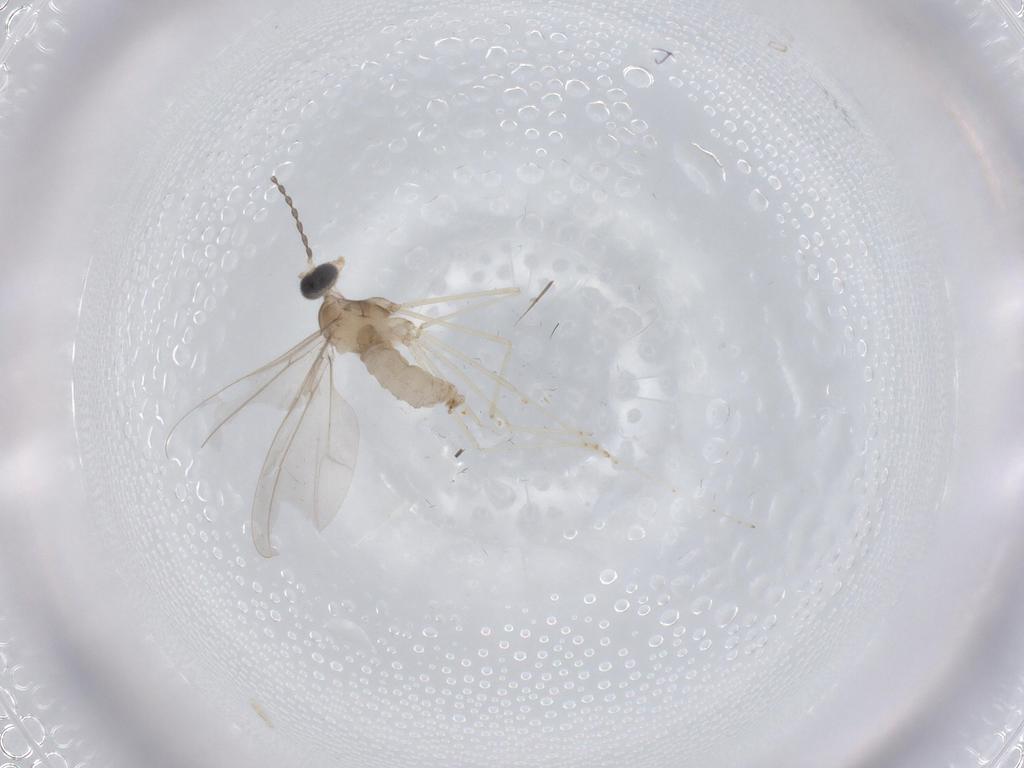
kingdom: Animalia
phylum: Arthropoda
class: Insecta
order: Diptera
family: Cecidomyiidae
